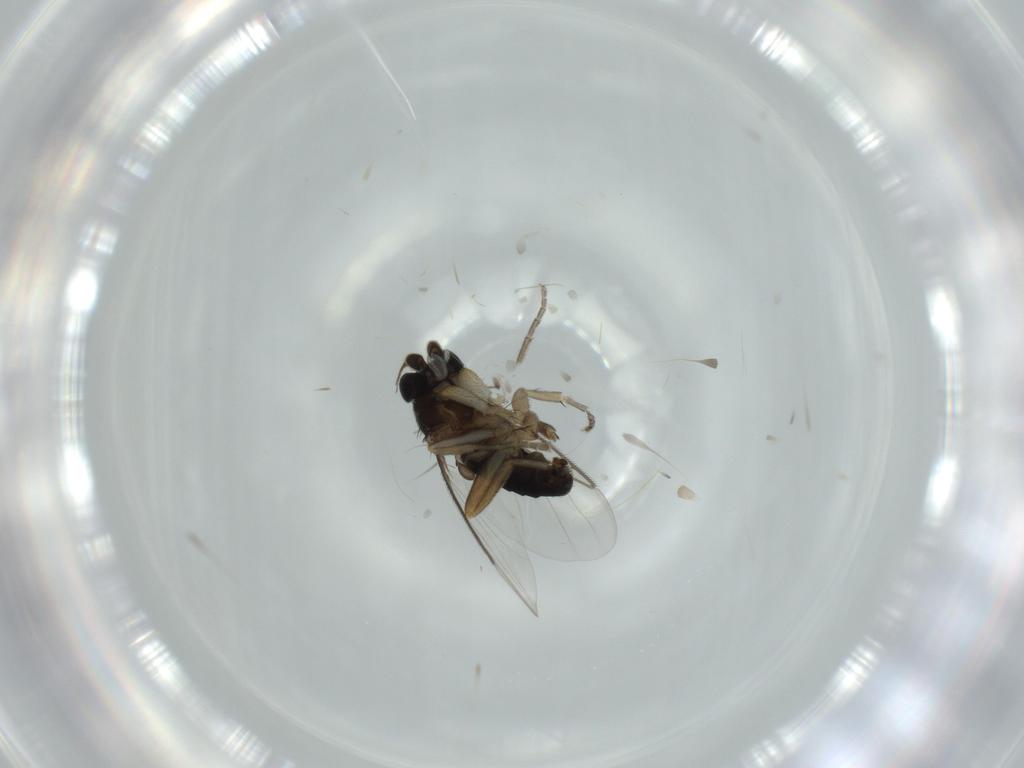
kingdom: Animalia
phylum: Arthropoda
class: Insecta
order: Diptera
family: Phoridae
